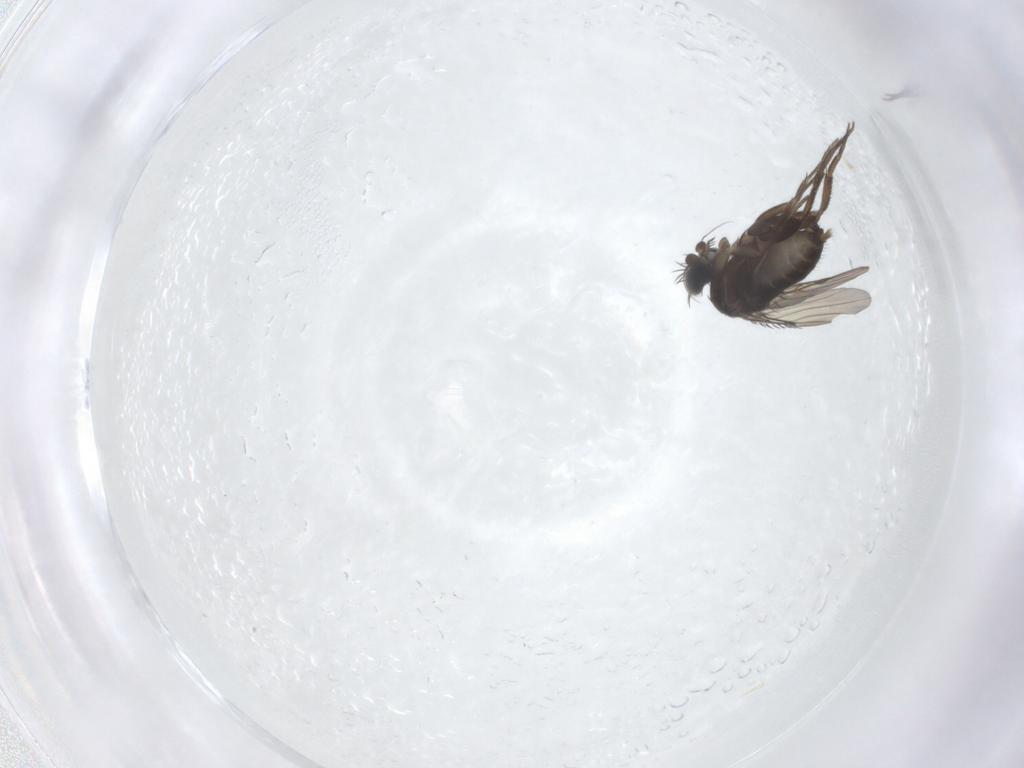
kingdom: Animalia
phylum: Arthropoda
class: Insecta
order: Diptera
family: Phoridae
